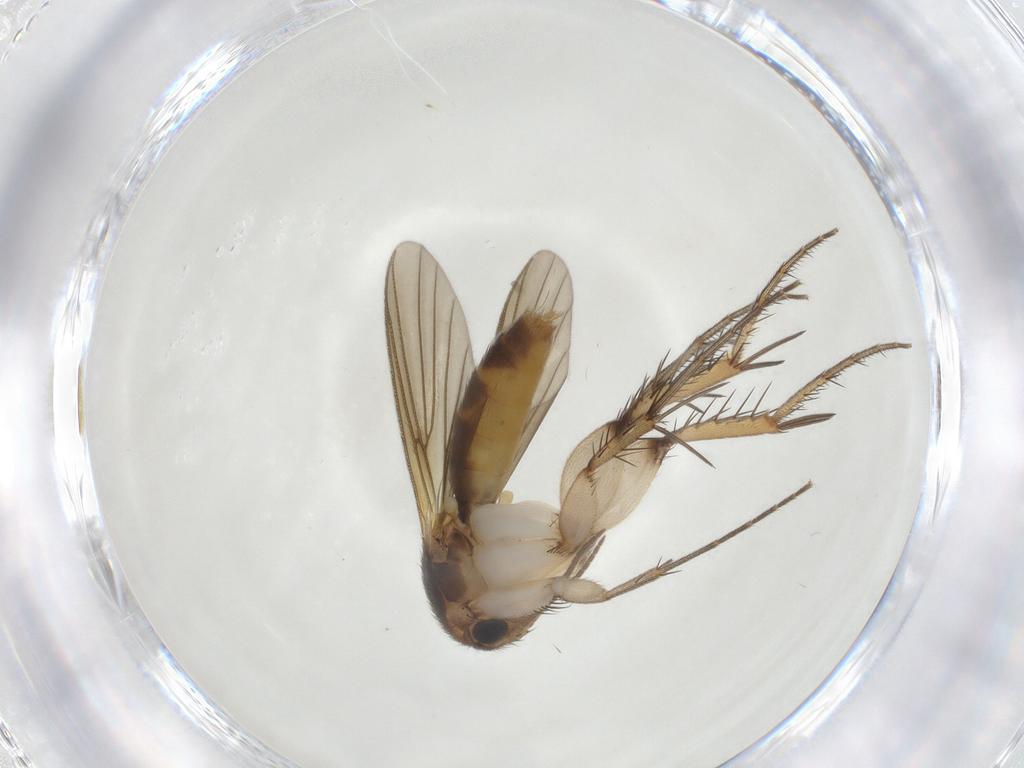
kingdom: Animalia
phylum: Arthropoda
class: Insecta
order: Diptera
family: Mycetophilidae
